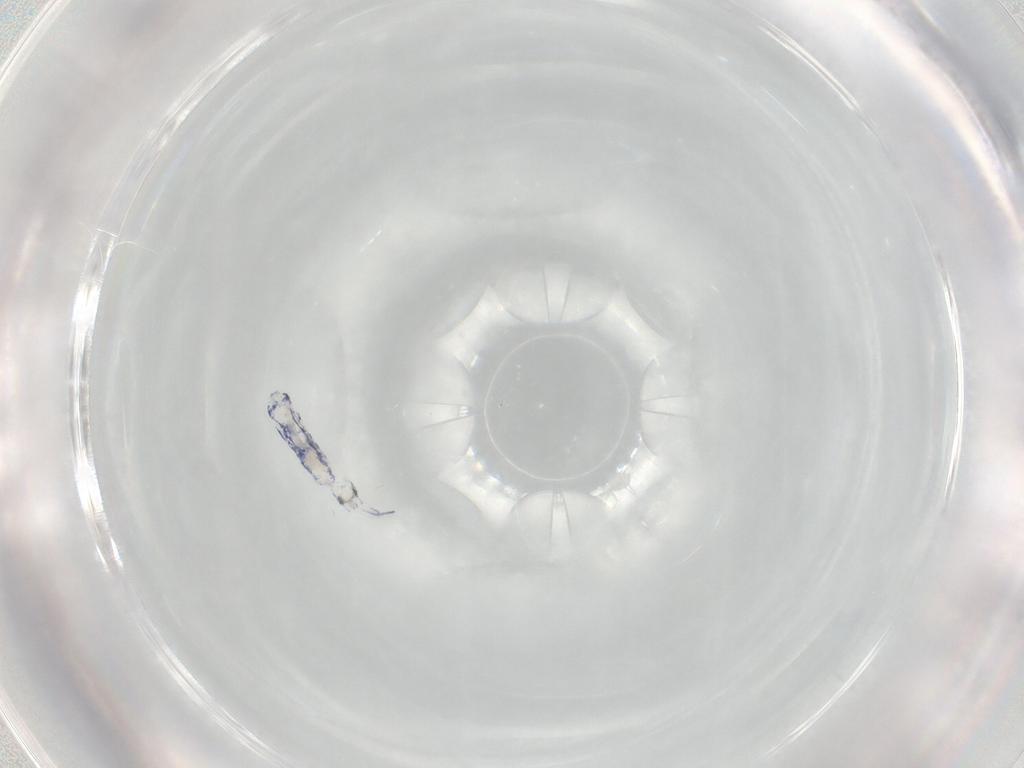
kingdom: Animalia
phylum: Arthropoda
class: Collembola
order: Entomobryomorpha
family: Entomobryidae
